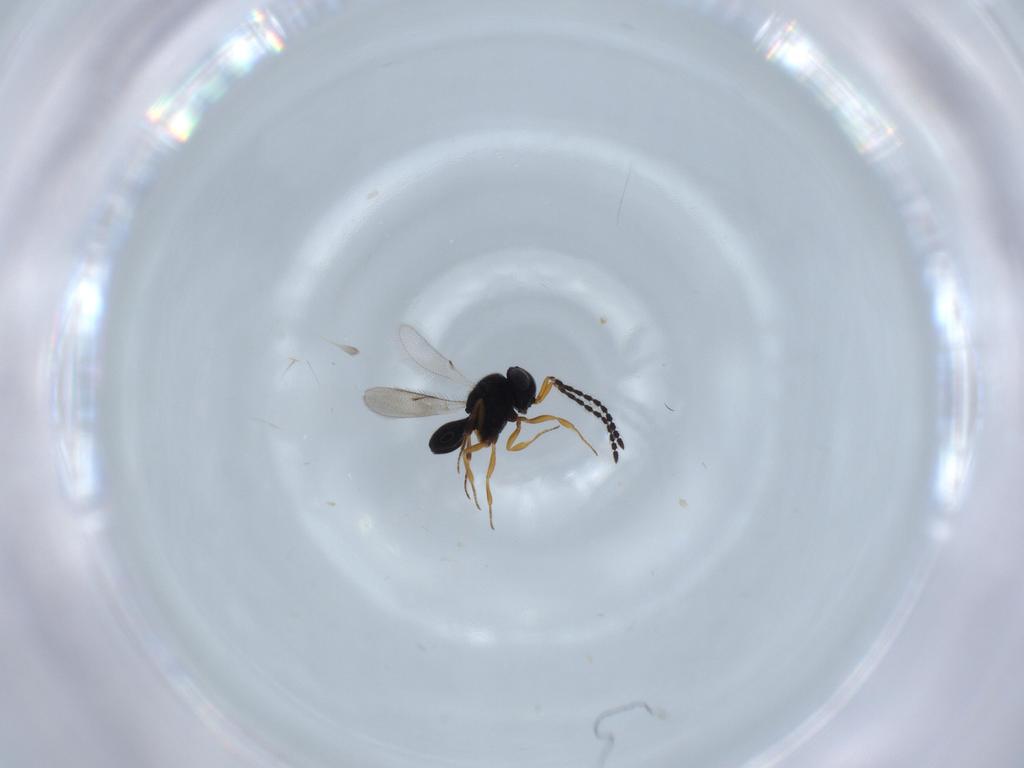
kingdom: Animalia
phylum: Arthropoda
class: Insecta
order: Hymenoptera
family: Scelionidae
